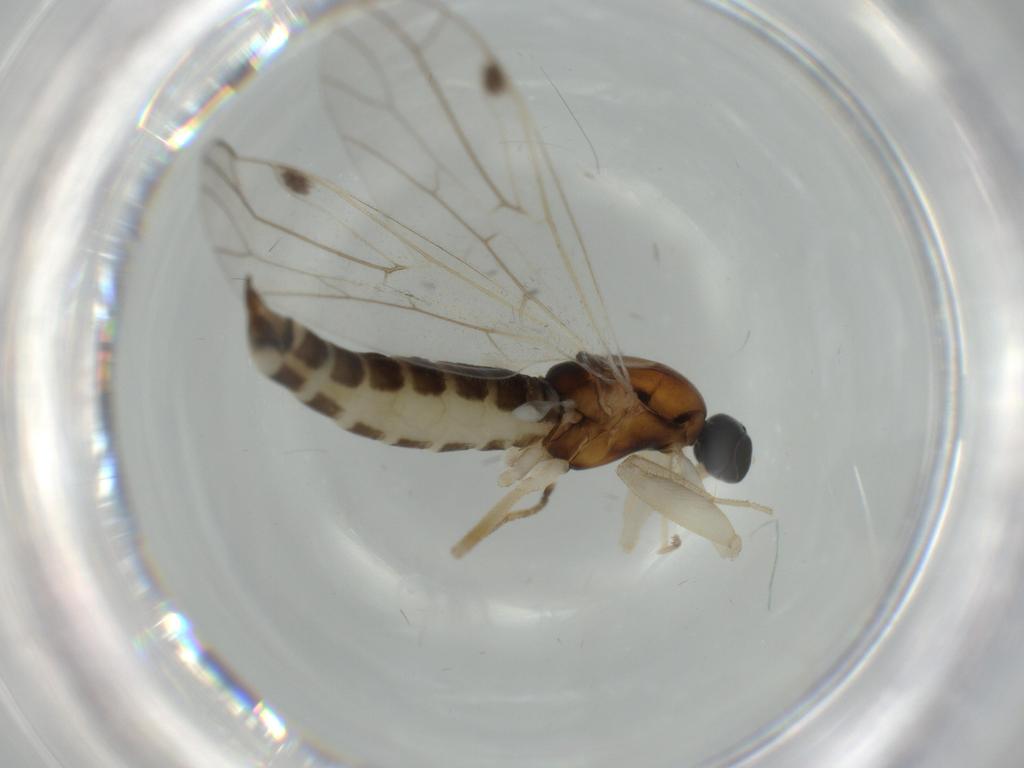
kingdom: Animalia
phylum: Arthropoda
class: Insecta
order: Diptera
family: Empididae
